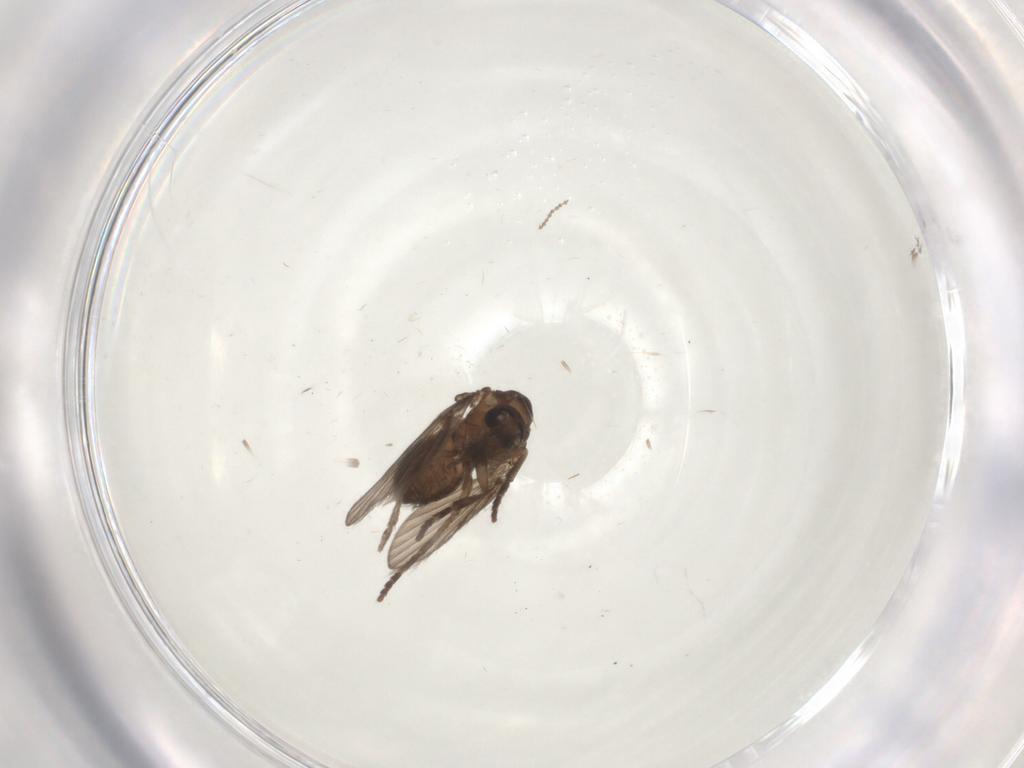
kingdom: Animalia
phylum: Arthropoda
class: Insecta
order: Diptera
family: Psychodidae
